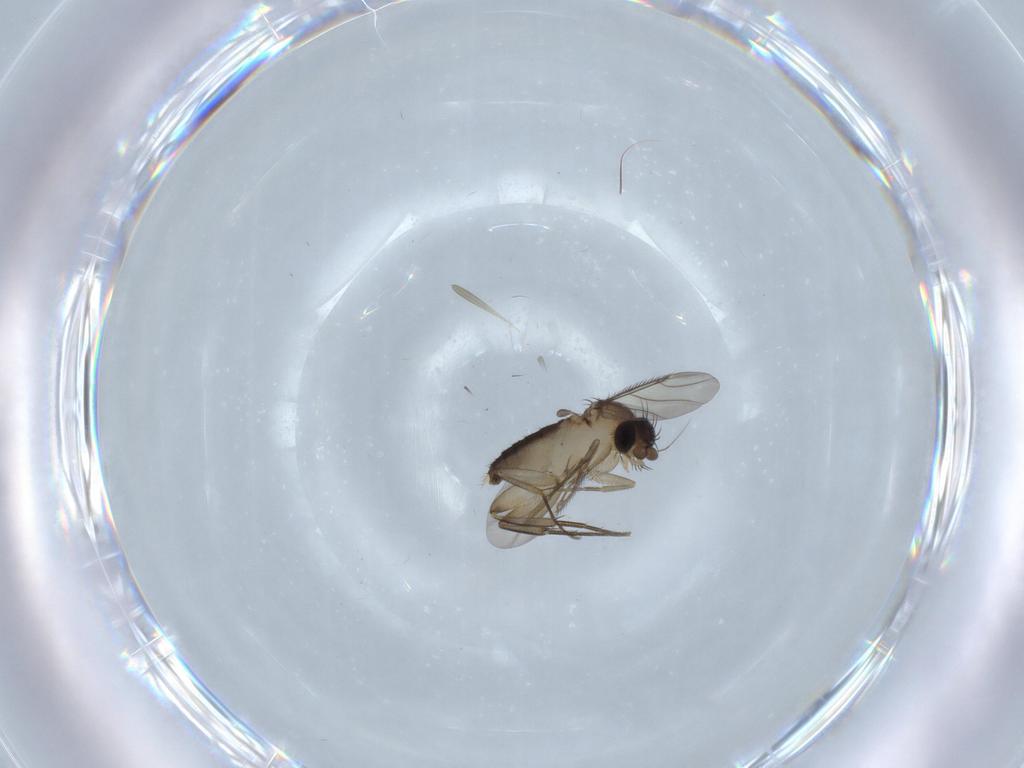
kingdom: Animalia
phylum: Arthropoda
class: Insecta
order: Diptera
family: Phoridae
